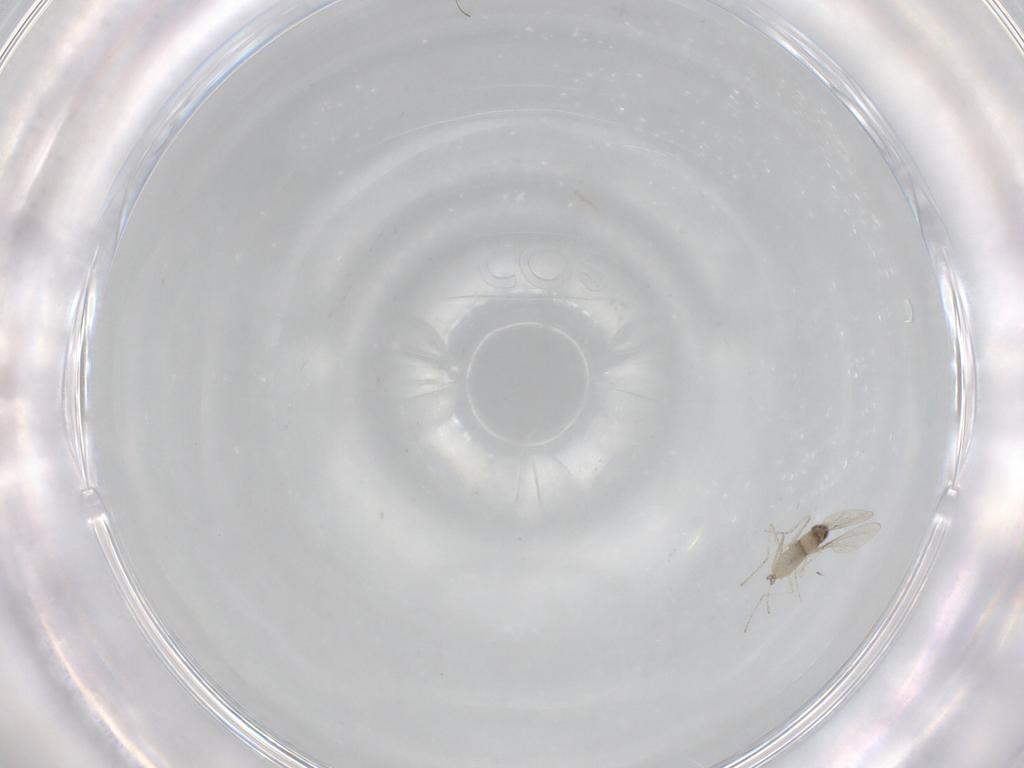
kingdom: Animalia
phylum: Arthropoda
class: Insecta
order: Diptera
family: Cecidomyiidae
